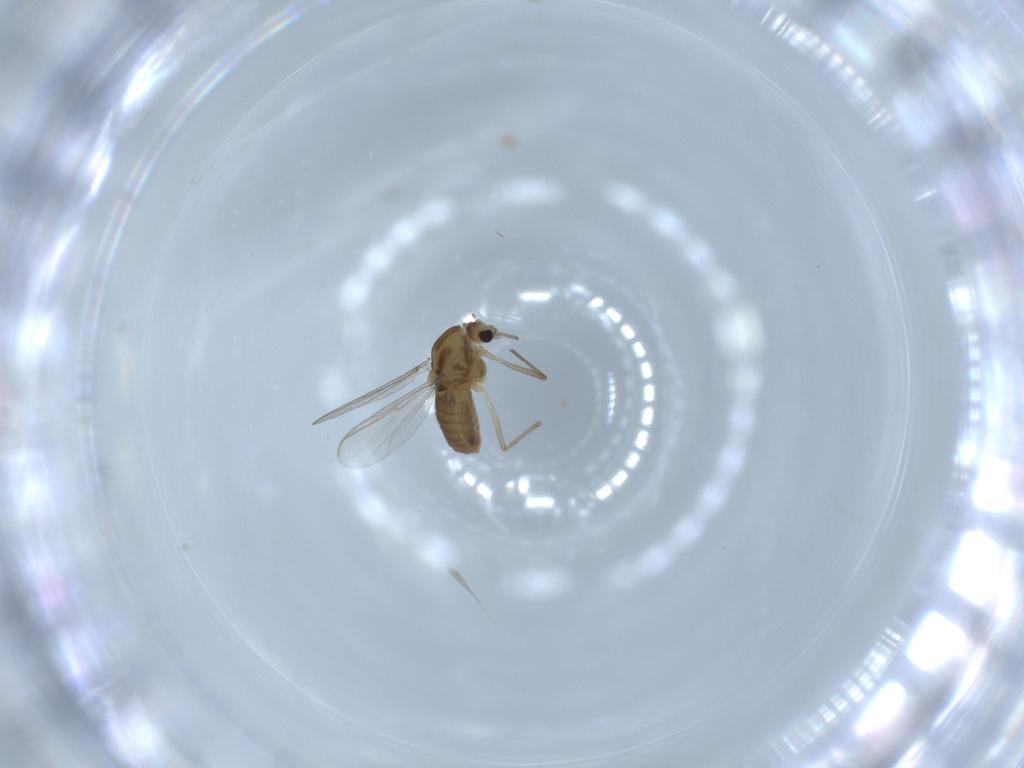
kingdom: Animalia
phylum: Arthropoda
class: Insecta
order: Diptera
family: Chironomidae
